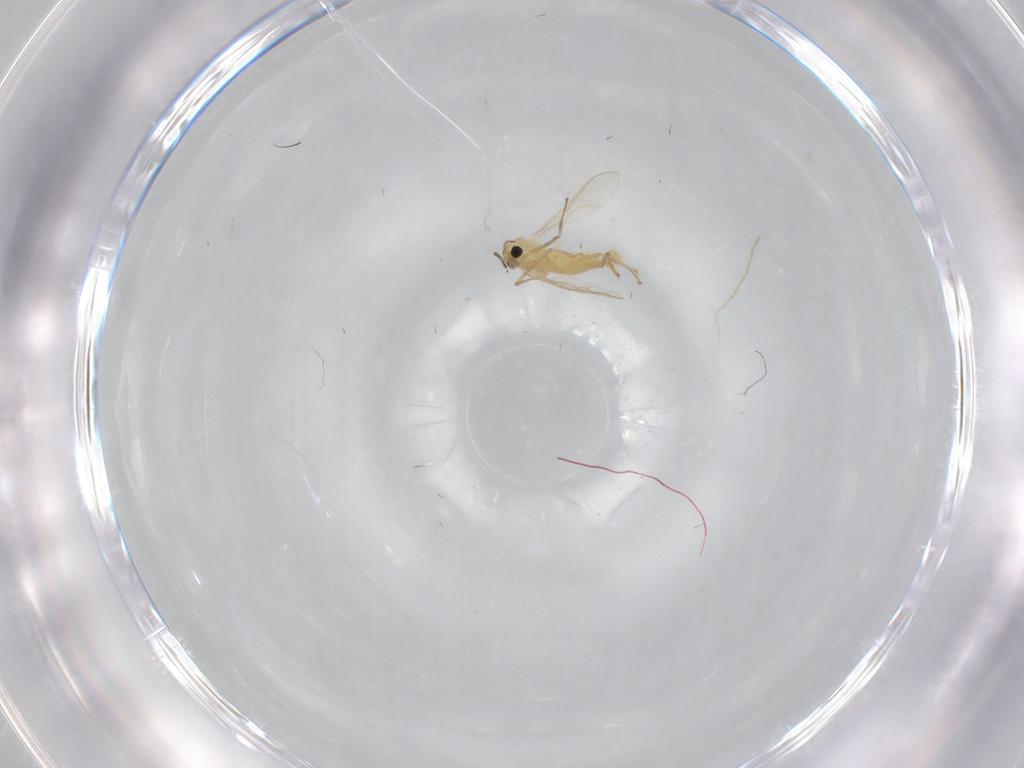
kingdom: Animalia
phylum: Arthropoda
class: Insecta
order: Diptera
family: Chironomidae
